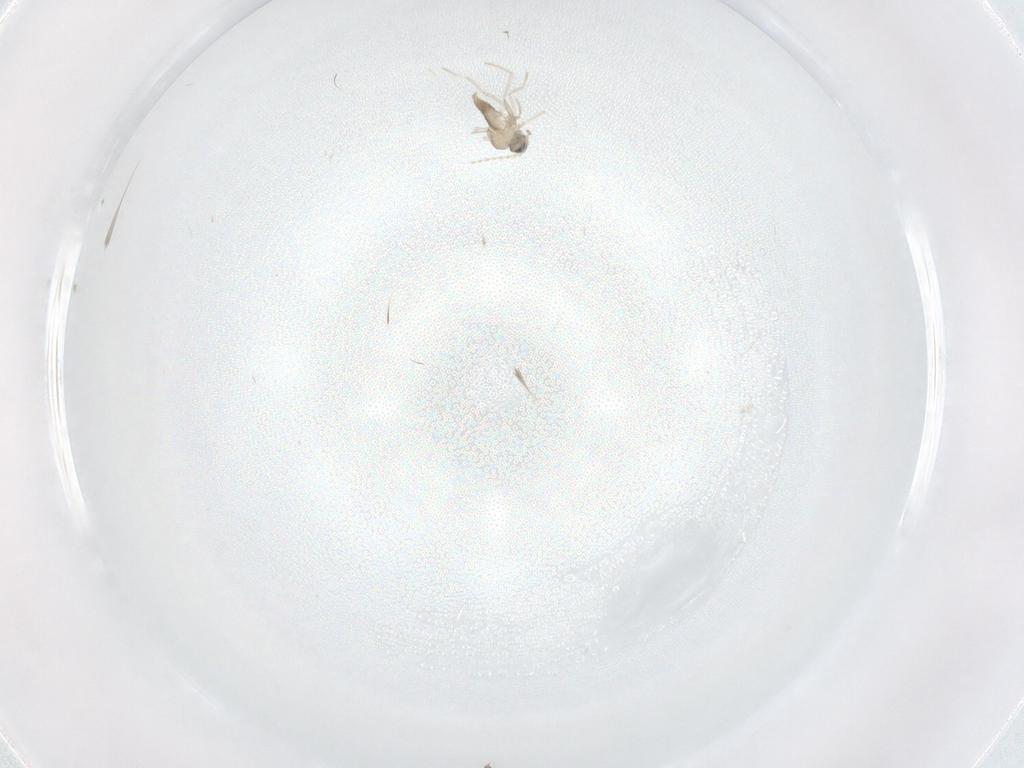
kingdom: Animalia
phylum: Arthropoda
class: Insecta
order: Diptera
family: Cecidomyiidae
